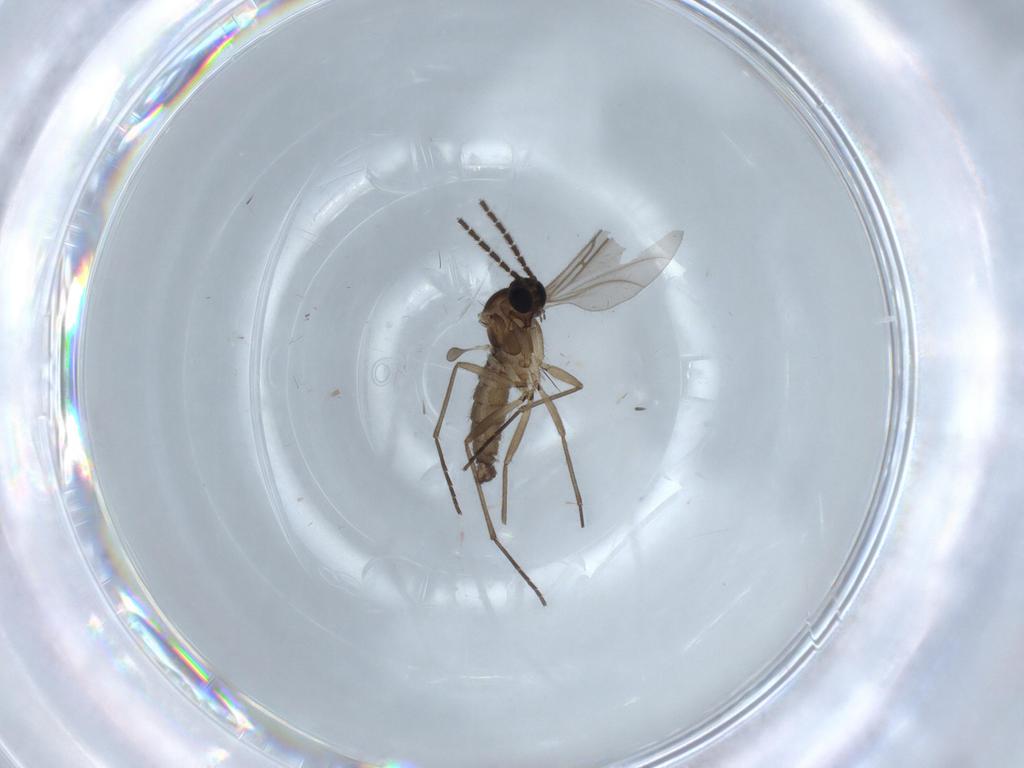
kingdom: Animalia
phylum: Arthropoda
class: Insecta
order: Diptera
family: Sciaridae
